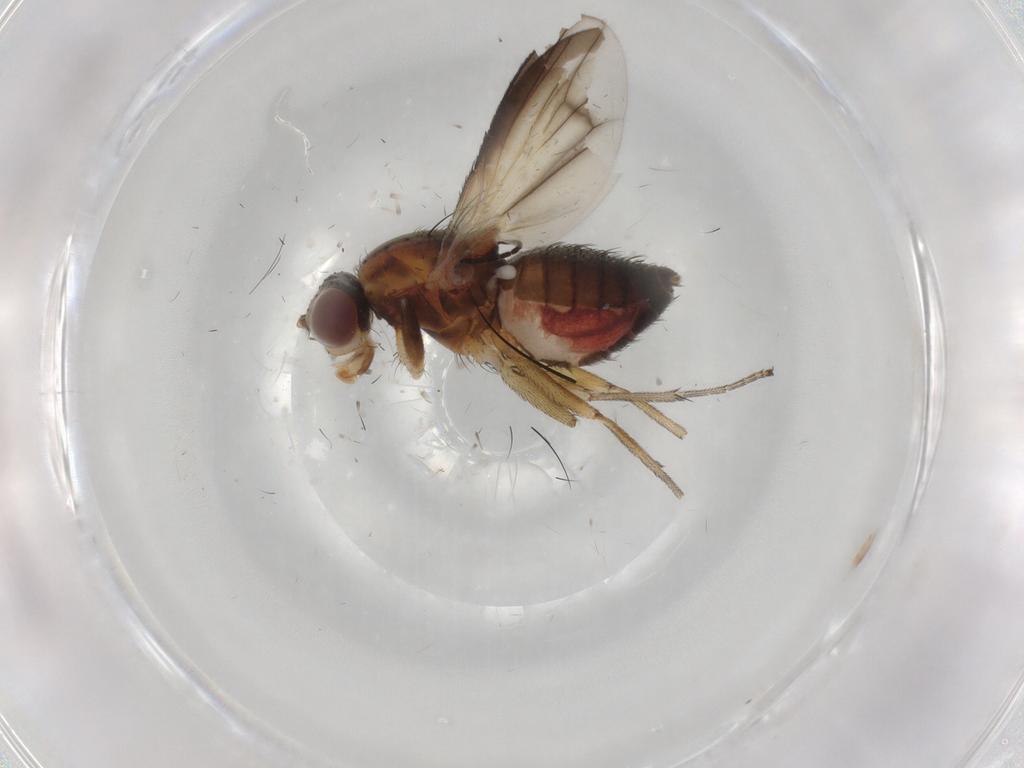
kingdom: Animalia
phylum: Arthropoda
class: Insecta
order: Diptera
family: Heleomyzidae
